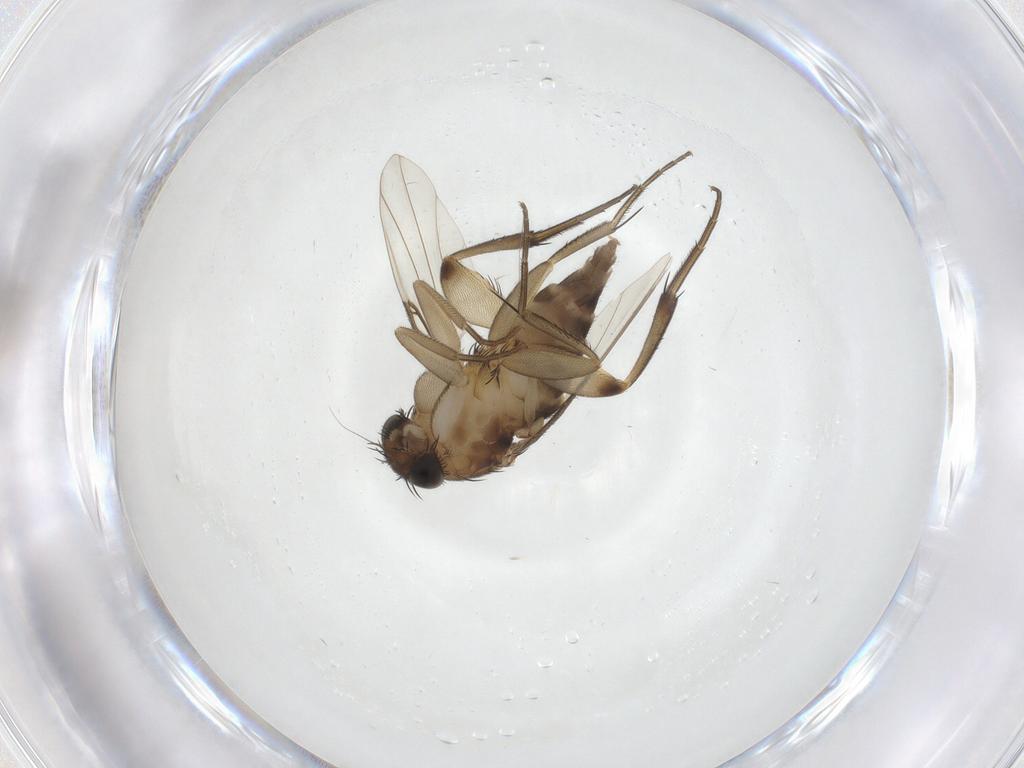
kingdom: Animalia
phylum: Arthropoda
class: Insecta
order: Diptera
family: Phoridae
